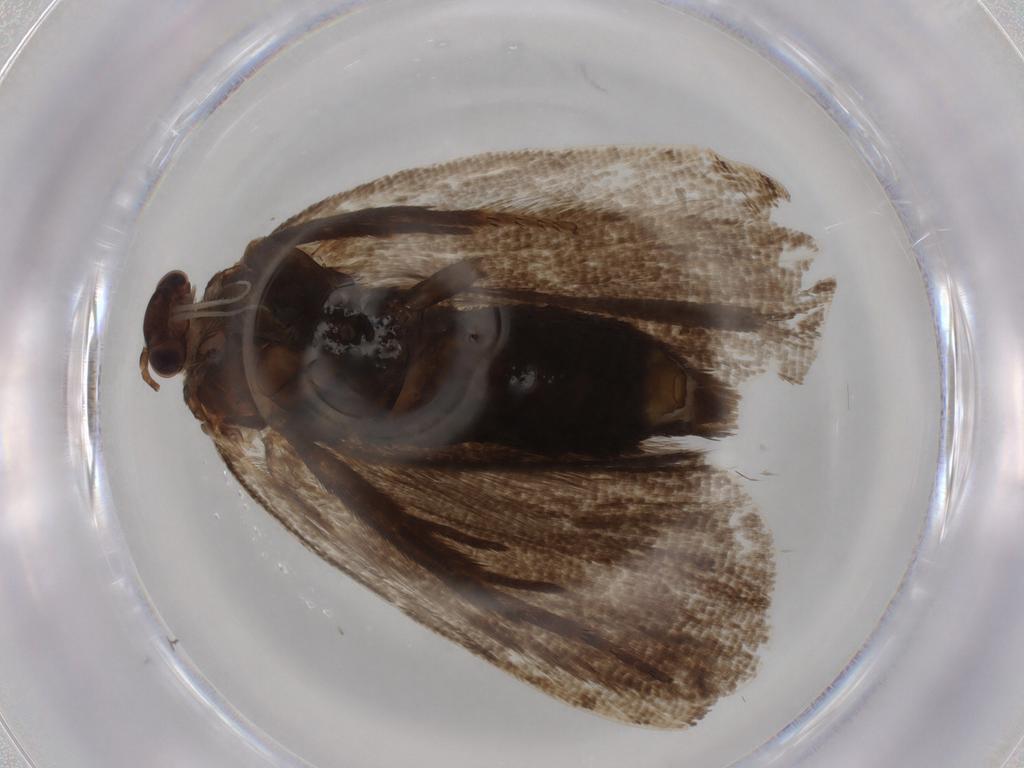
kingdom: Animalia
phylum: Arthropoda
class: Insecta
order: Lepidoptera
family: Tortricidae
